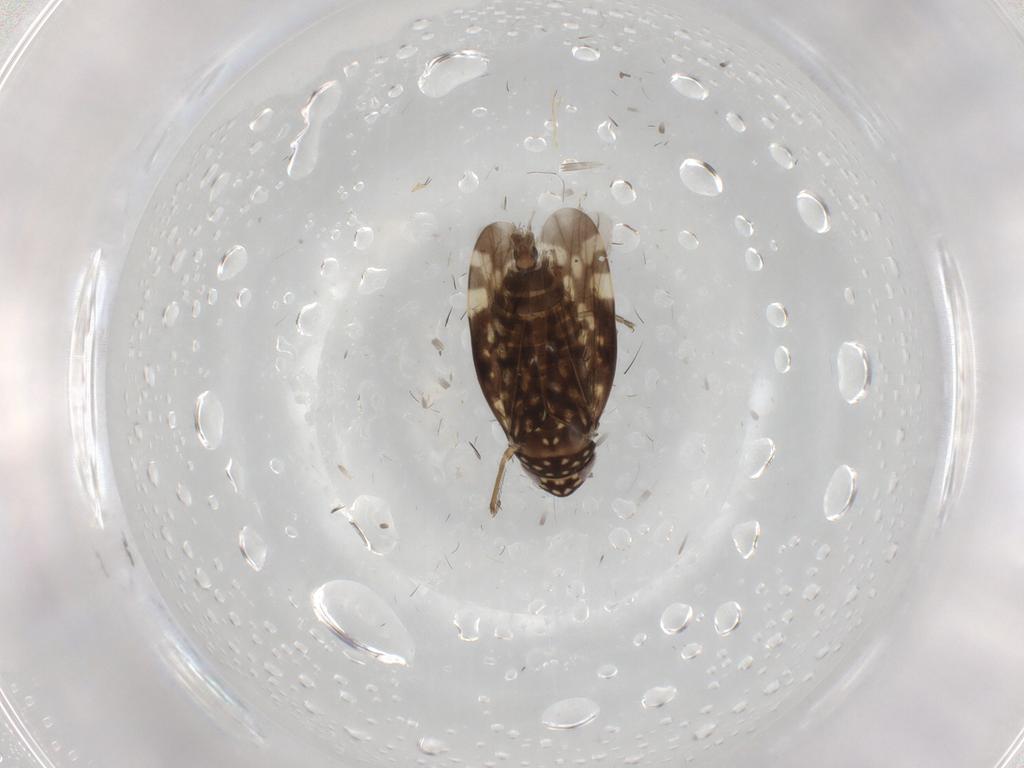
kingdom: Animalia
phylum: Arthropoda
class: Insecta
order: Hemiptera
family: Cicadellidae
